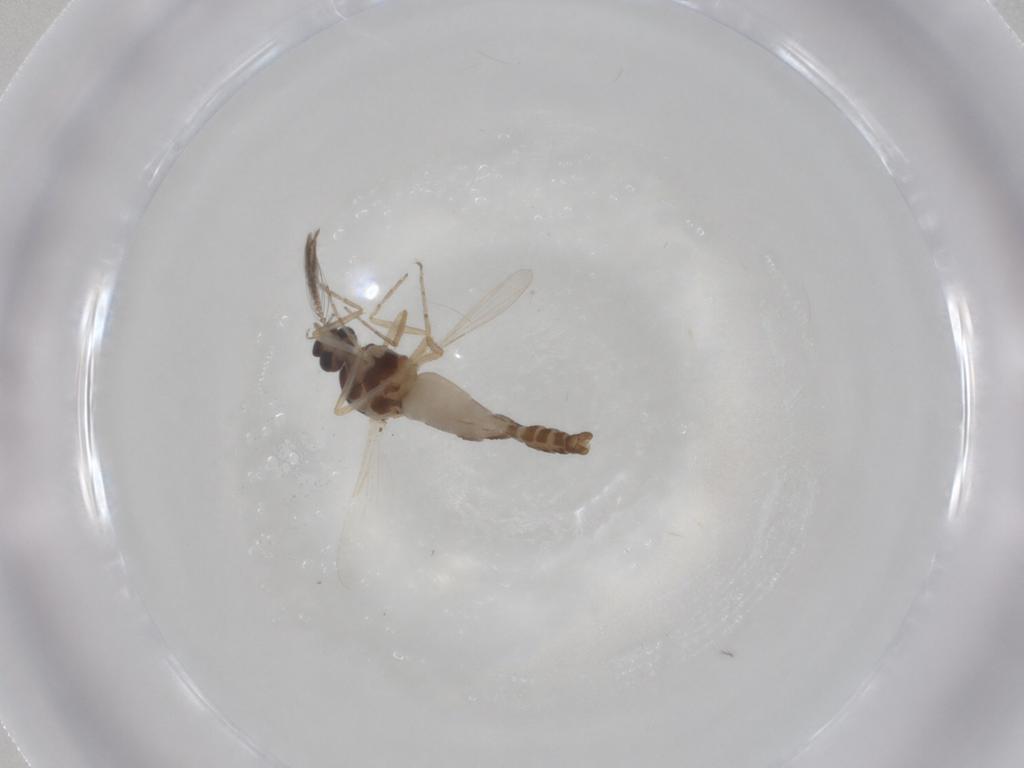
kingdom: Animalia
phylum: Arthropoda
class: Insecta
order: Diptera
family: Ceratopogonidae
